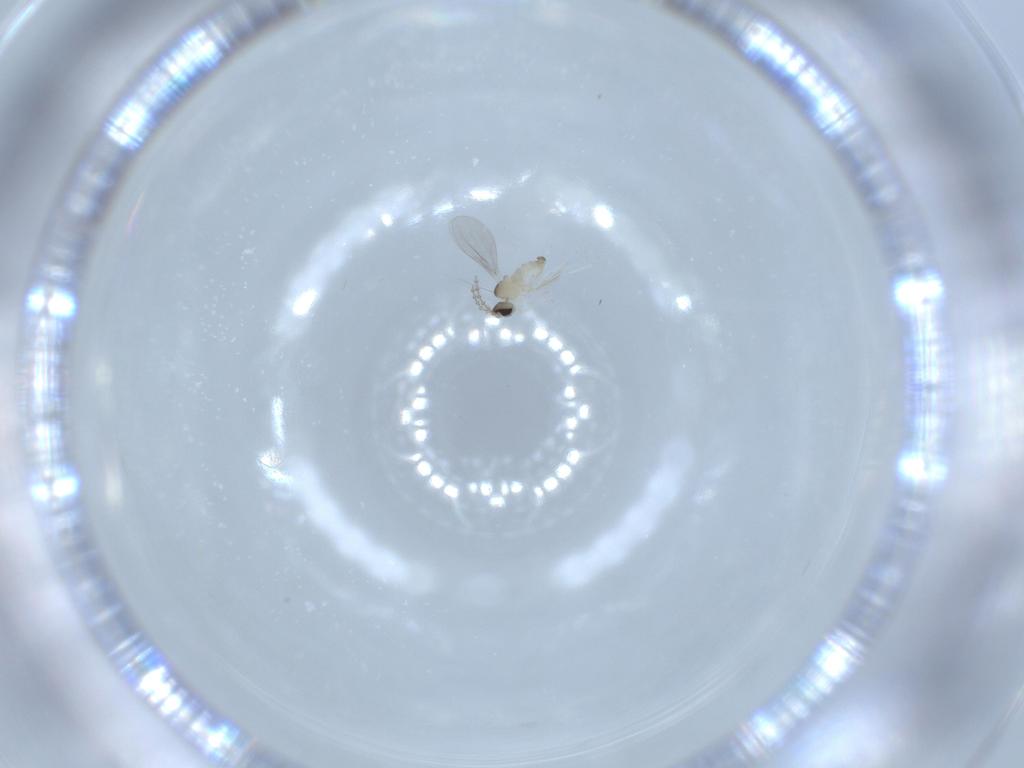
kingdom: Animalia
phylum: Arthropoda
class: Insecta
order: Diptera
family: Cecidomyiidae
